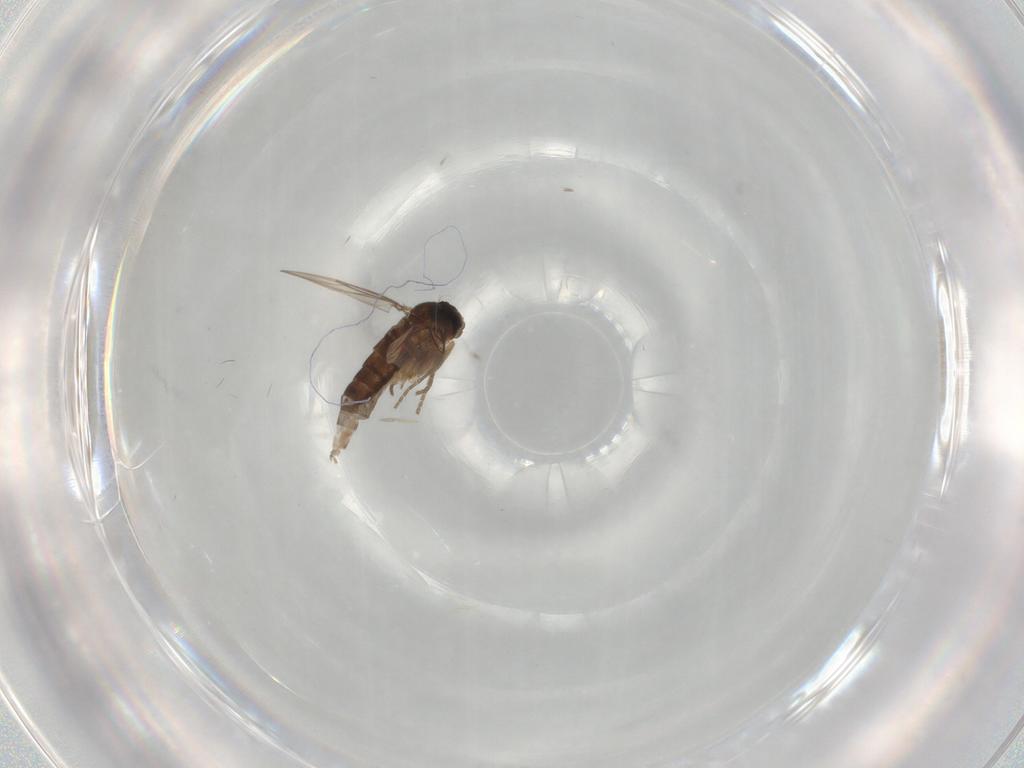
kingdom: Animalia
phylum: Arthropoda
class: Insecta
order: Diptera
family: Phoridae
